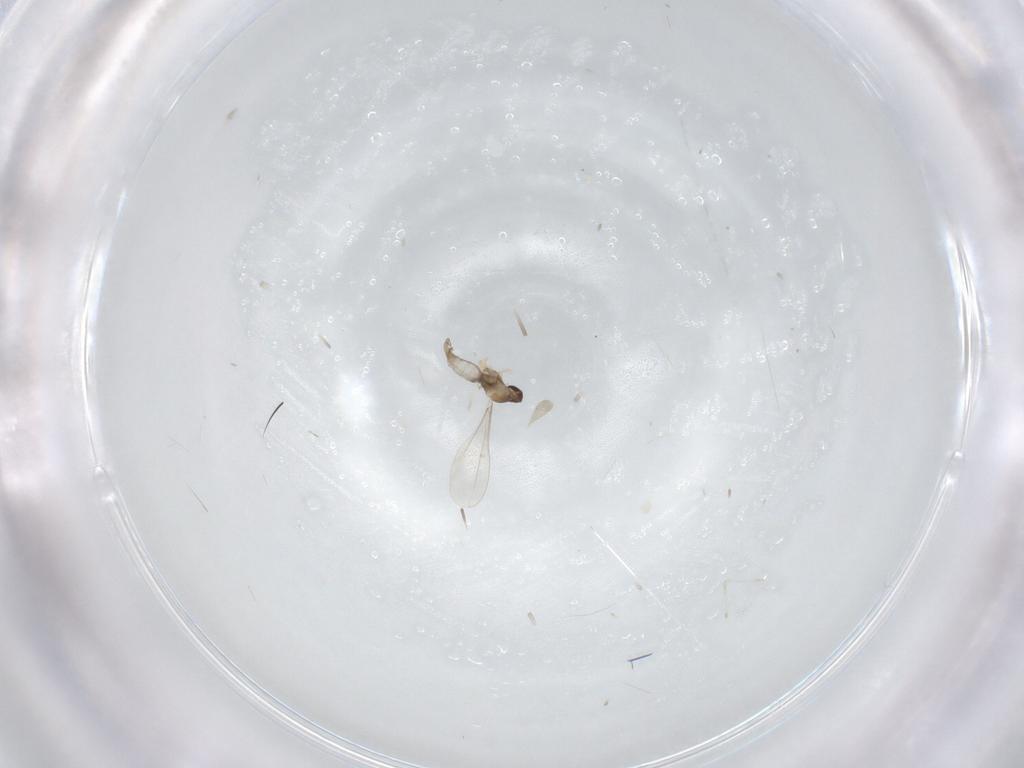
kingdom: Animalia
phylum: Arthropoda
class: Insecta
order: Diptera
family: Cecidomyiidae
